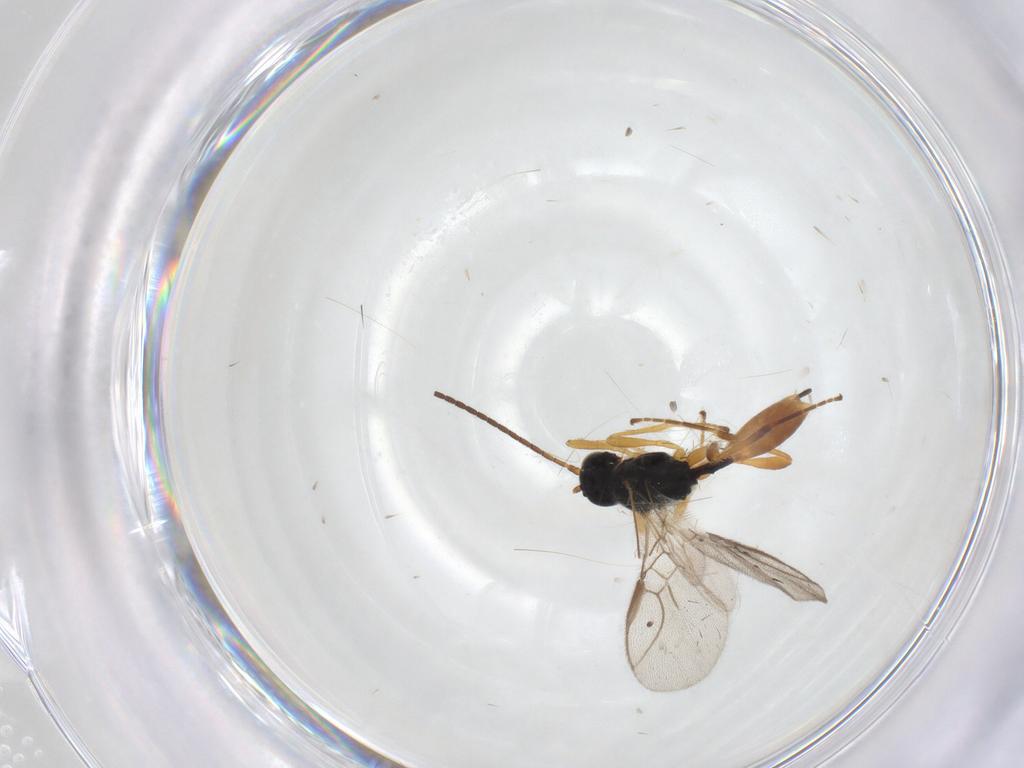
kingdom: Animalia
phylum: Arthropoda
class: Insecta
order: Hymenoptera
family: Braconidae
